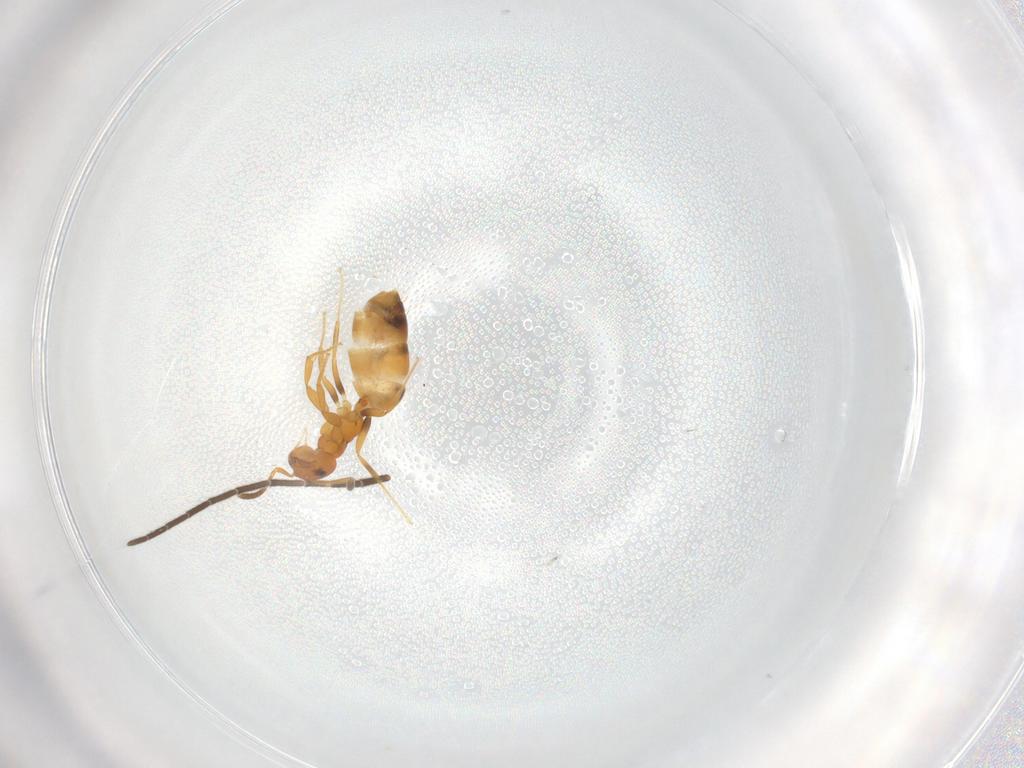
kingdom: Animalia
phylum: Arthropoda
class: Insecta
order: Hymenoptera
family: Formicidae
